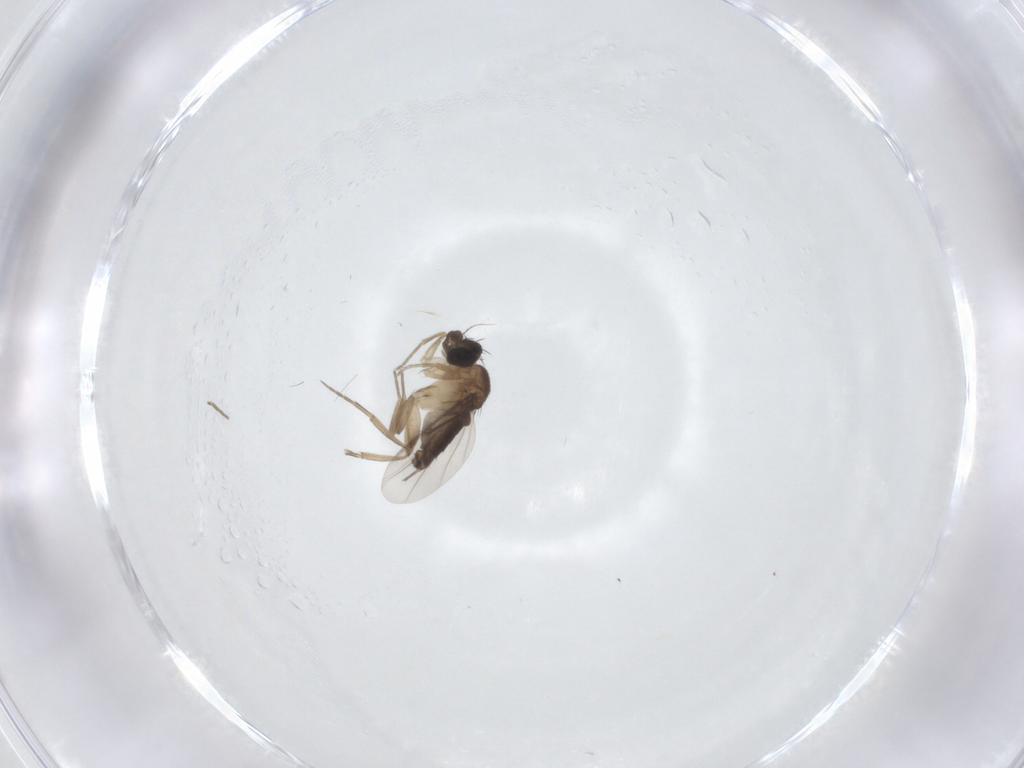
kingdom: Animalia
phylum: Arthropoda
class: Insecta
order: Diptera
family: Phoridae
